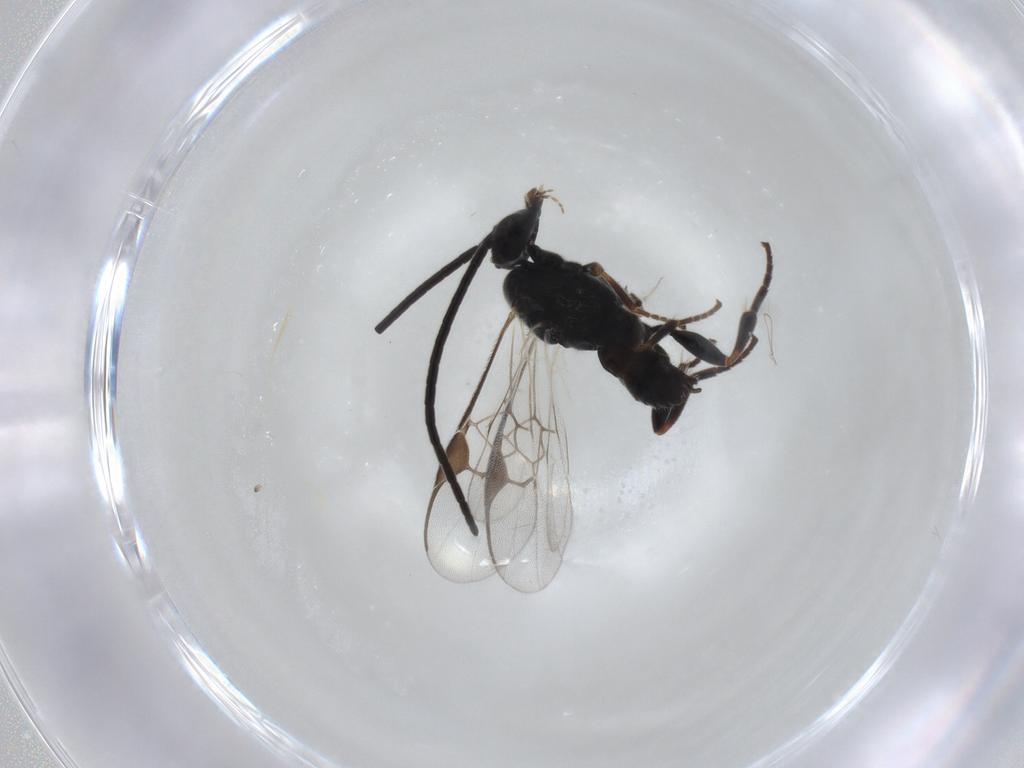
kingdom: Animalia
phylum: Arthropoda
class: Insecta
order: Hymenoptera
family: Braconidae
